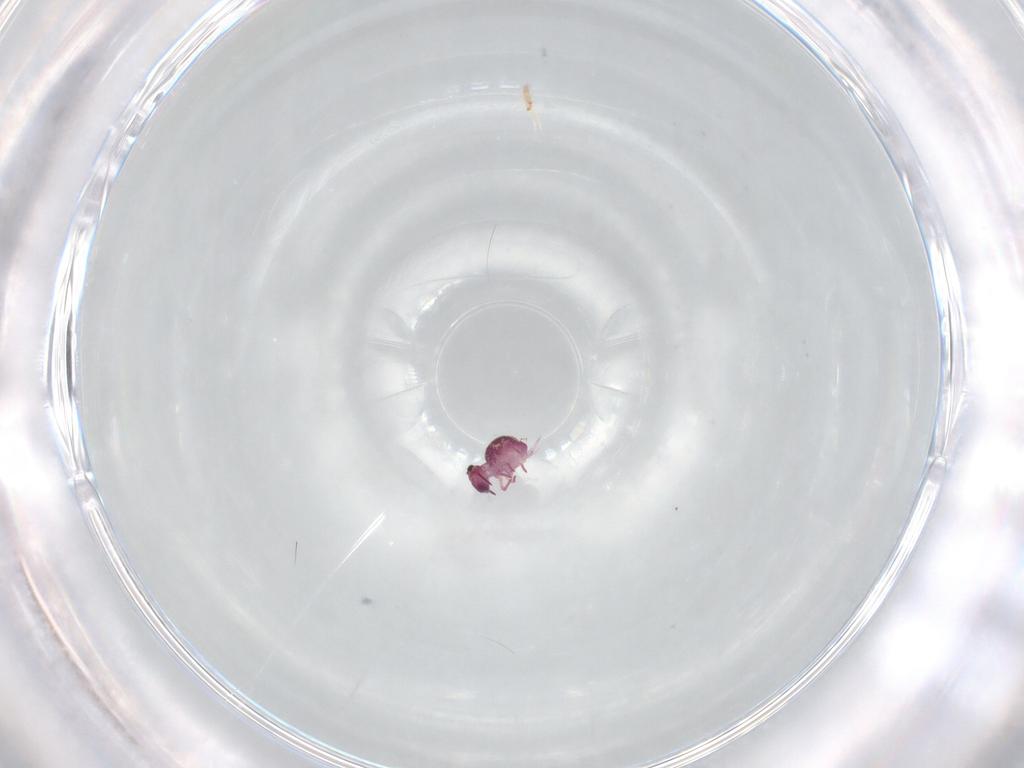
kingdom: Animalia
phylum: Arthropoda
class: Collembola
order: Symphypleona
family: Sminthurididae
